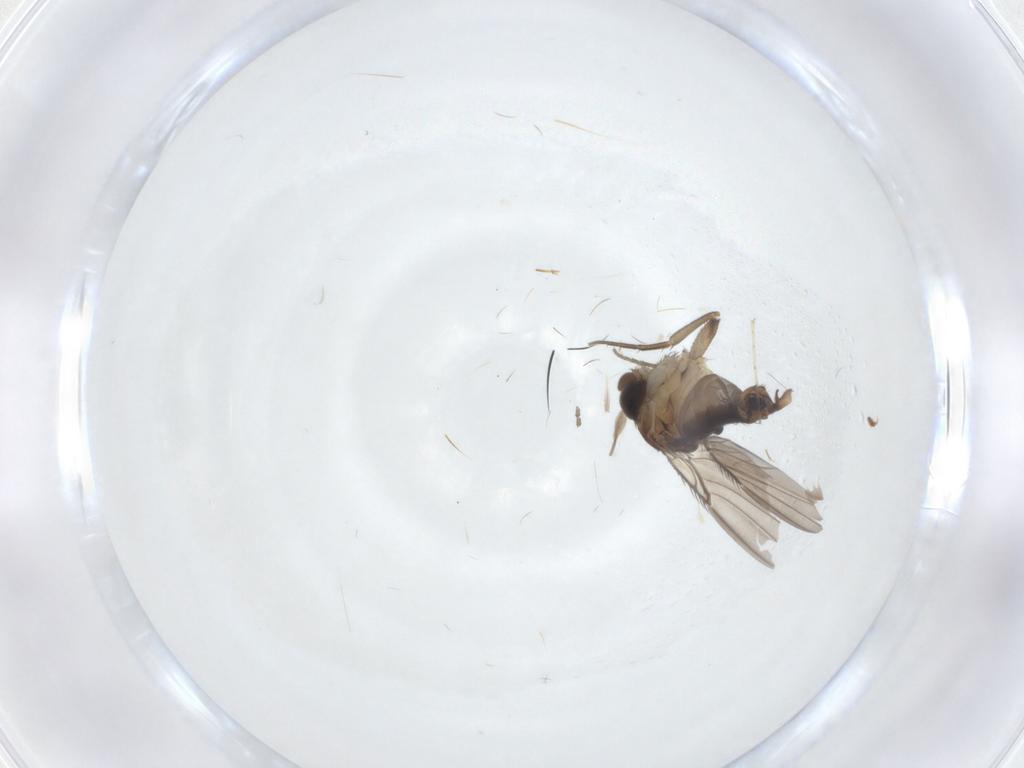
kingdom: Animalia
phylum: Arthropoda
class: Insecta
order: Diptera
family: Phoridae
